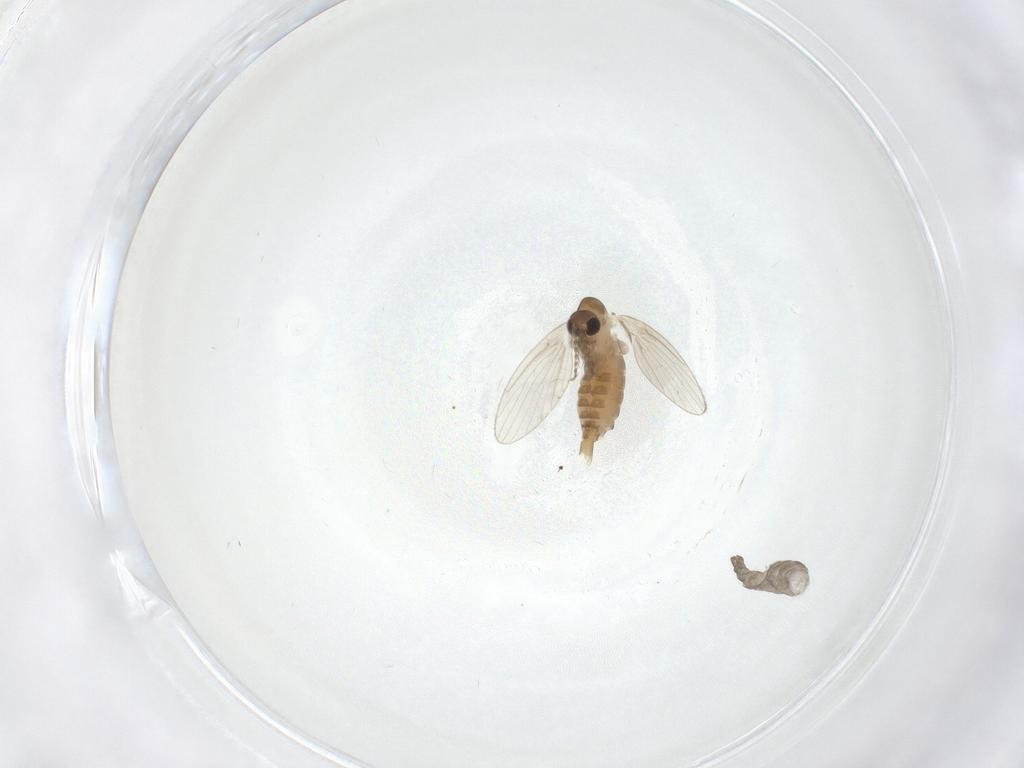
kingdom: Animalia
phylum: Arthropoda
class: Insecta
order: Diptera
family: Cecidomyiidae
